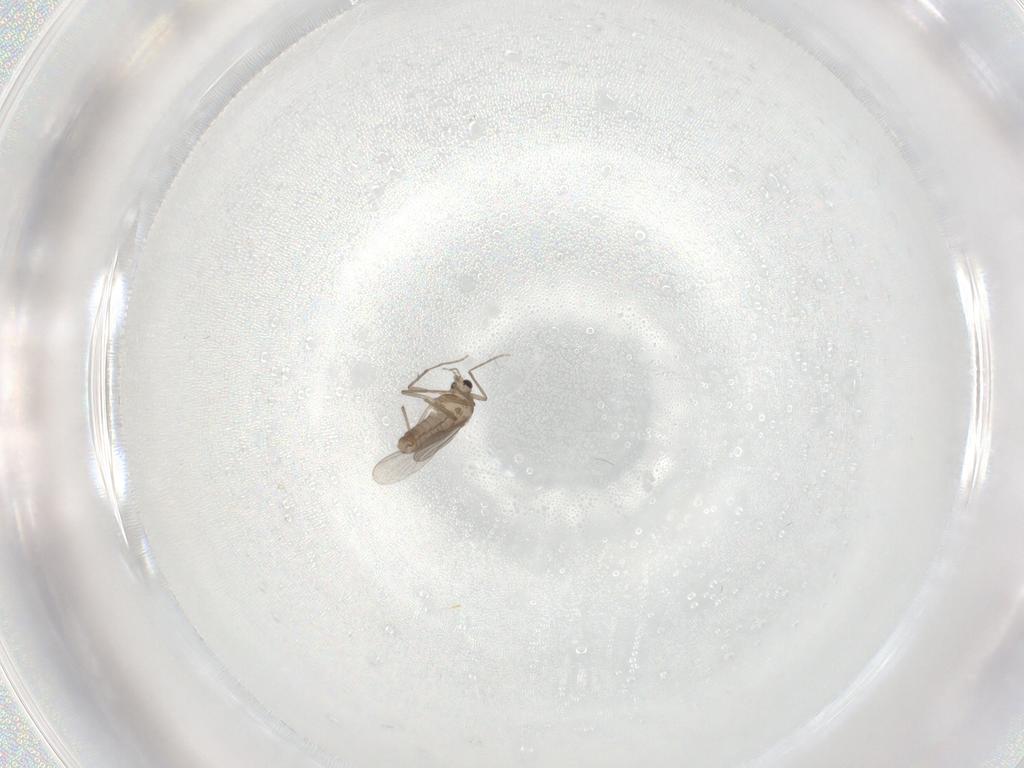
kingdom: Animalia
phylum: Arthropoda
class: Insecta
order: Diptera
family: Chironomidae
